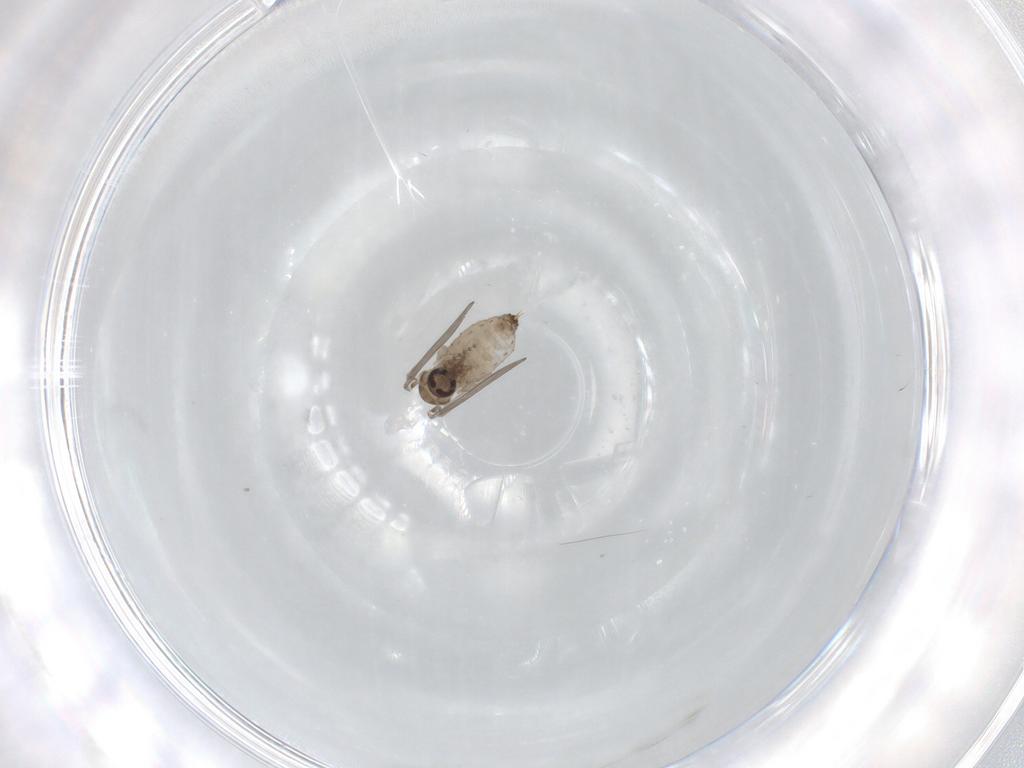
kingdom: Animalia
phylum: Arthropoda
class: Insecta
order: Diptera
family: Psychodidae
